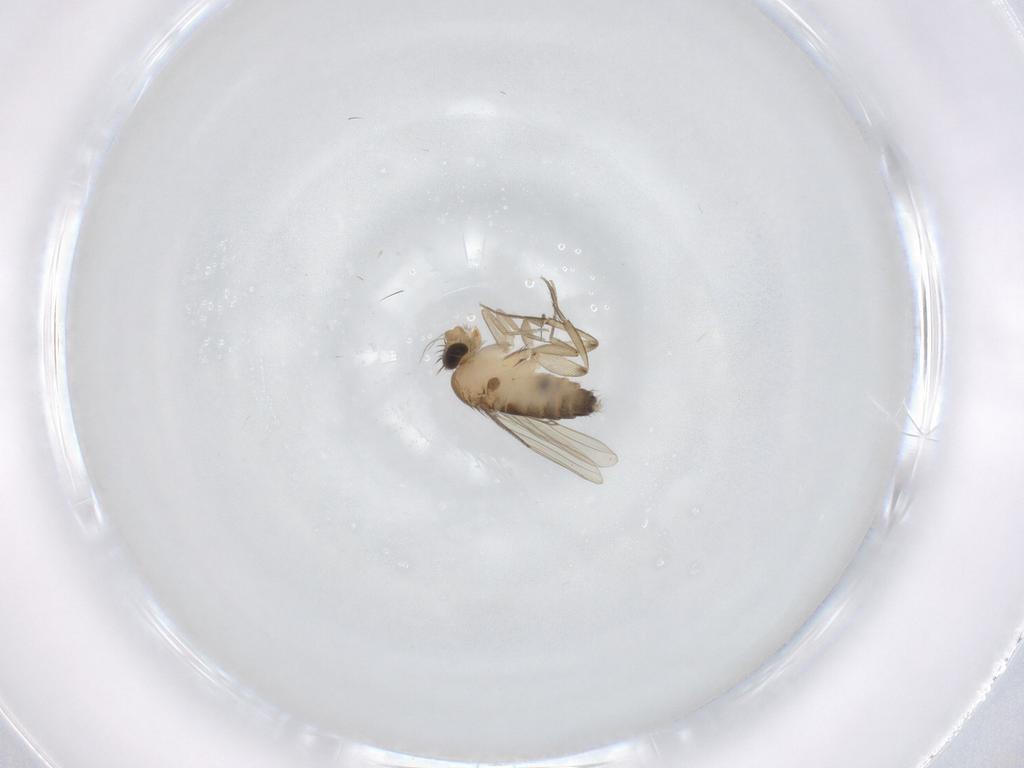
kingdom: Animalia
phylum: Arthropoda
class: Insecta
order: Diptera
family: Phoridae
